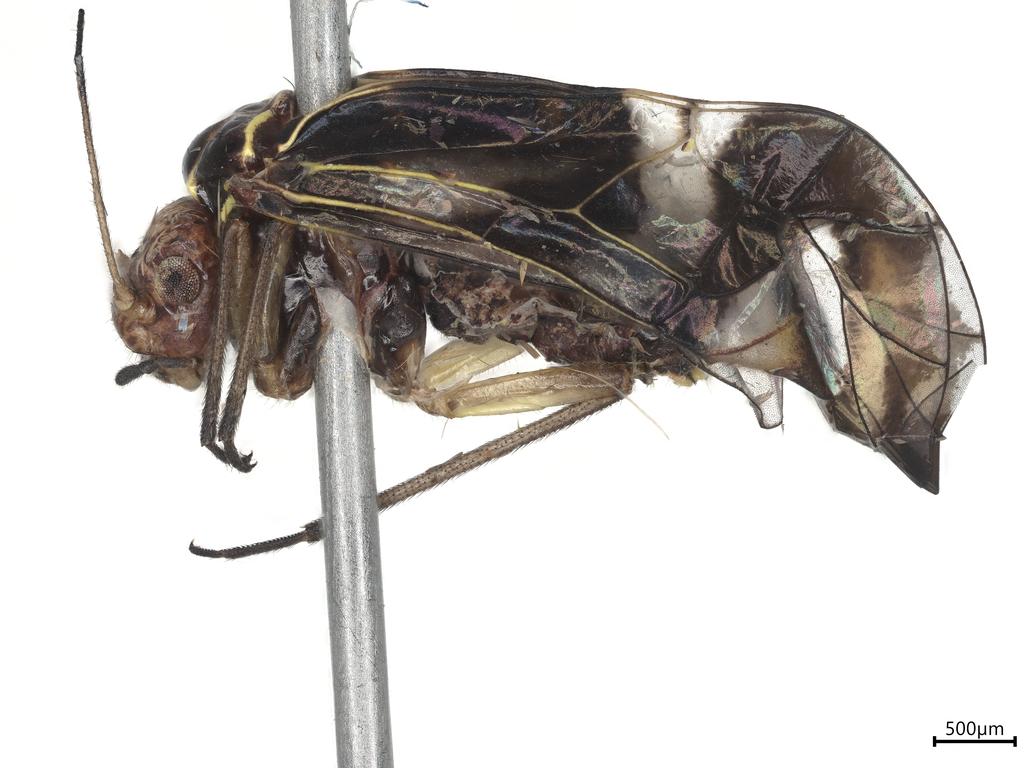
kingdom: Animalia
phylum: Arthropoda
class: Insecta
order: Diptera
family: Cecidomyiidae
